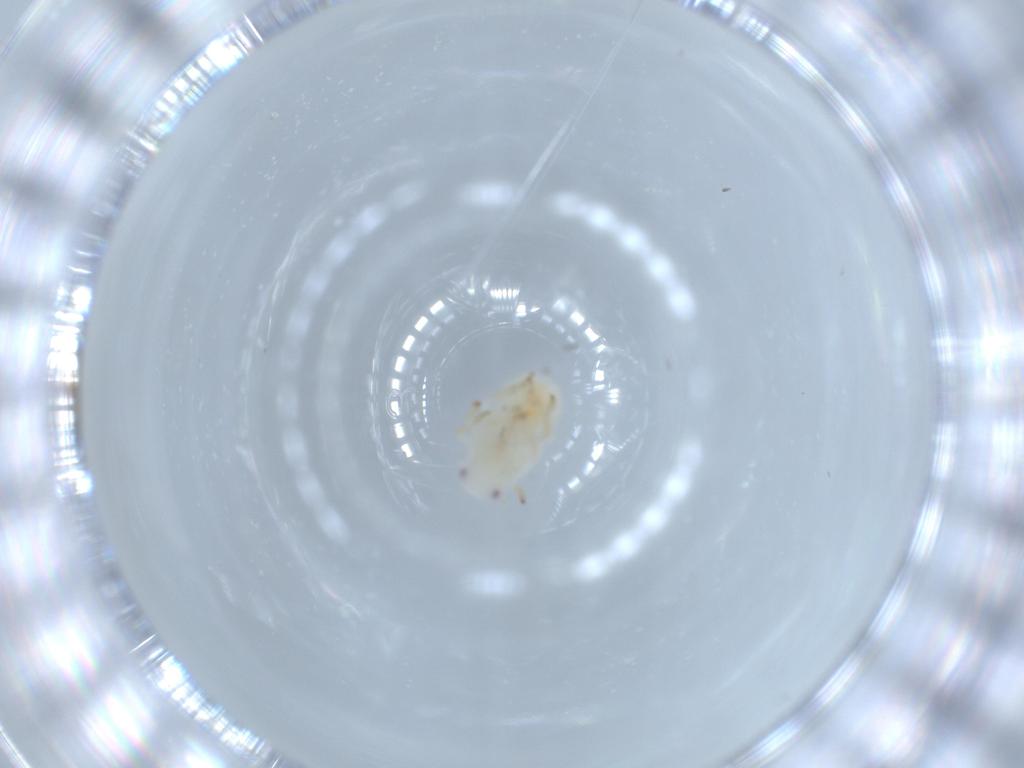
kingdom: Animalia
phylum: Arthropoda
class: Insecta
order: Hemiptera
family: Flatidae
